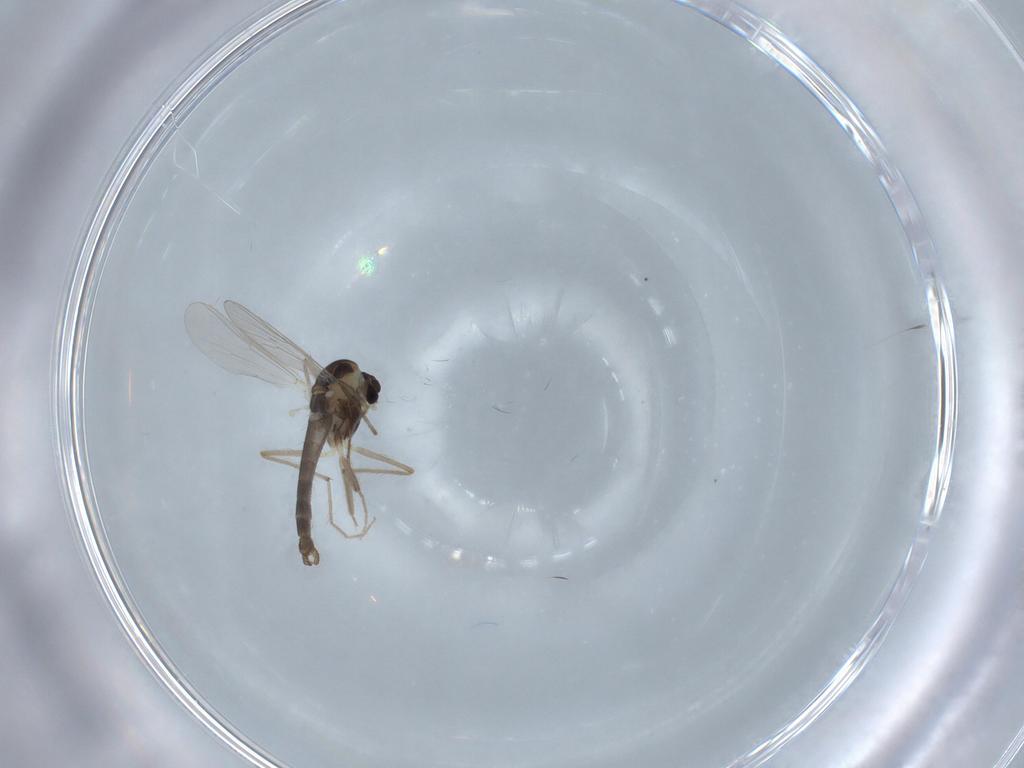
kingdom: Animalia
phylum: Arthropoda
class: Insecta
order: Diptera
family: Chironomidae
